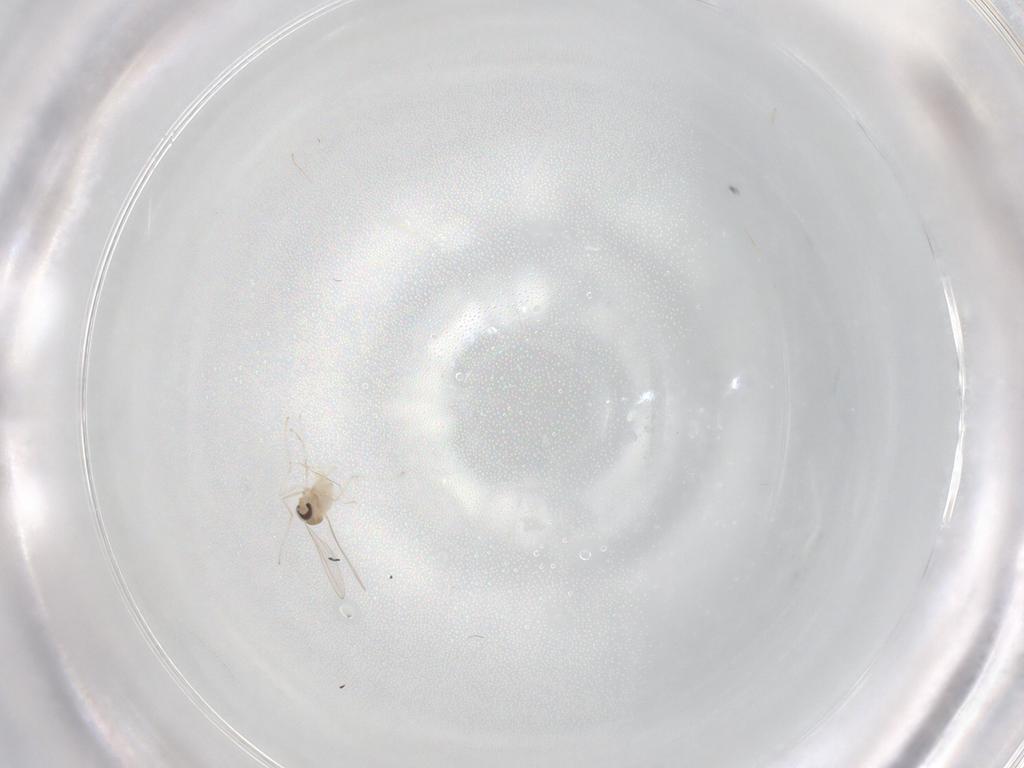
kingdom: Animalia
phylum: Arthropoda
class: Insecta
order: Diptera
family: Cecidomyiidae
